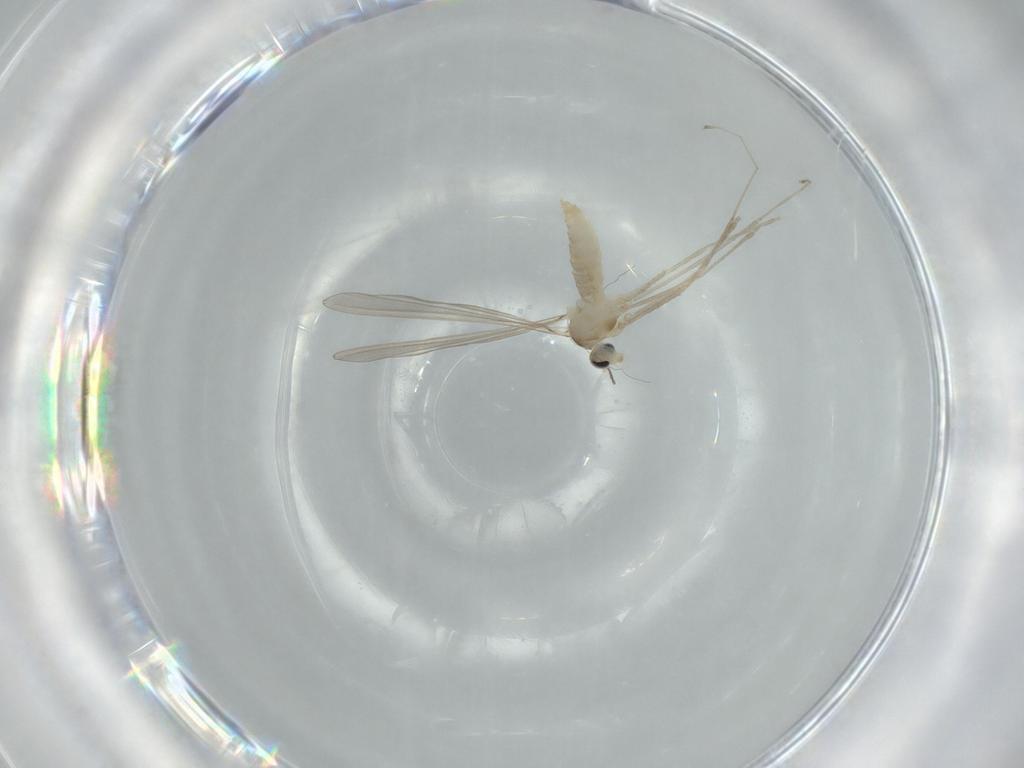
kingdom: Animalia
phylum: Arthropoda
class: Insecta
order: Diptera
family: Cecidomyiidae
